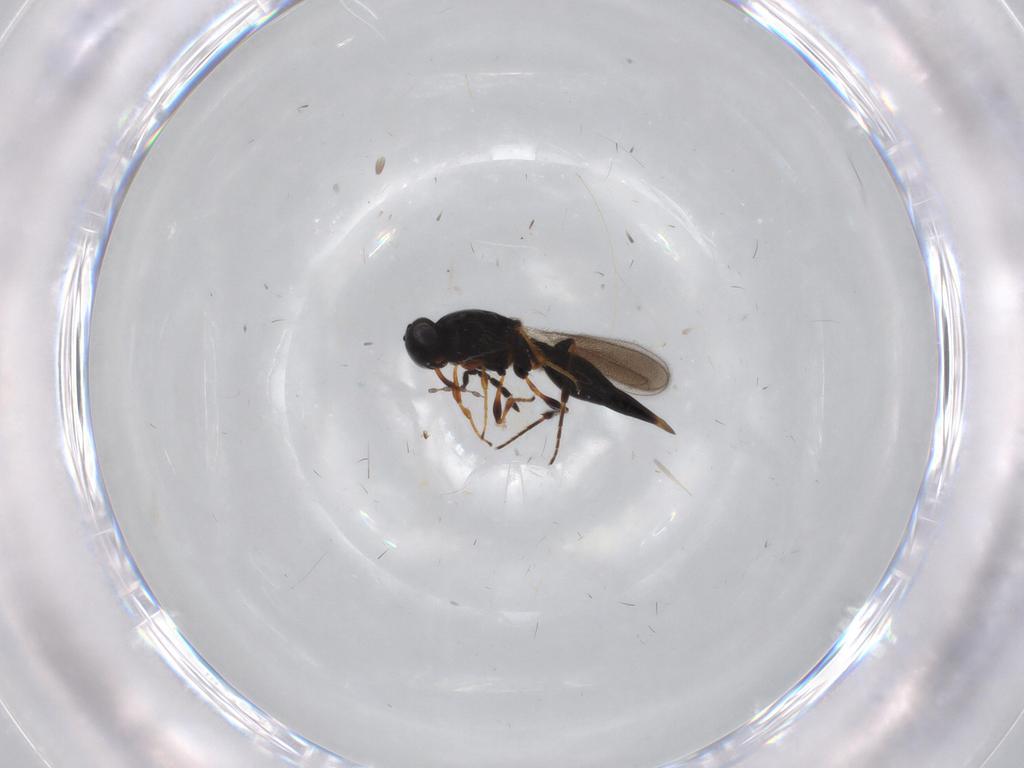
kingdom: Animalia
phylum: Arthropoda
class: Insecta
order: Hymenoptera
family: Platygastridae
